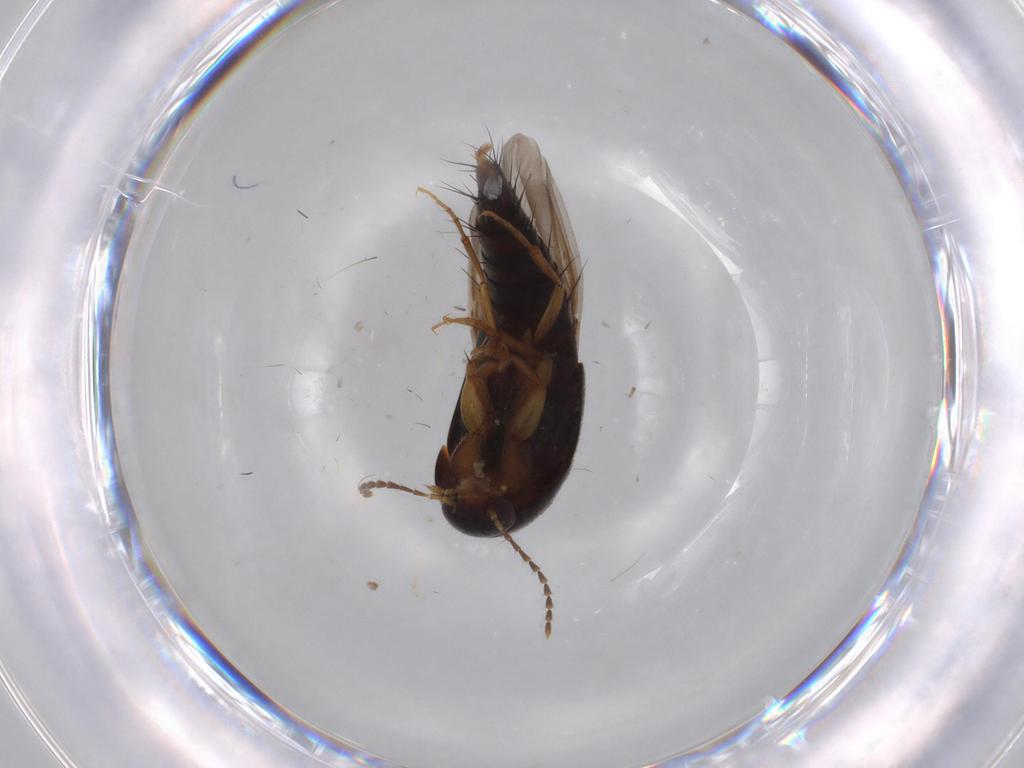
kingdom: Animalia
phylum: Arthropoda
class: Insecta
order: Coleoptera
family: Staphylinidae
